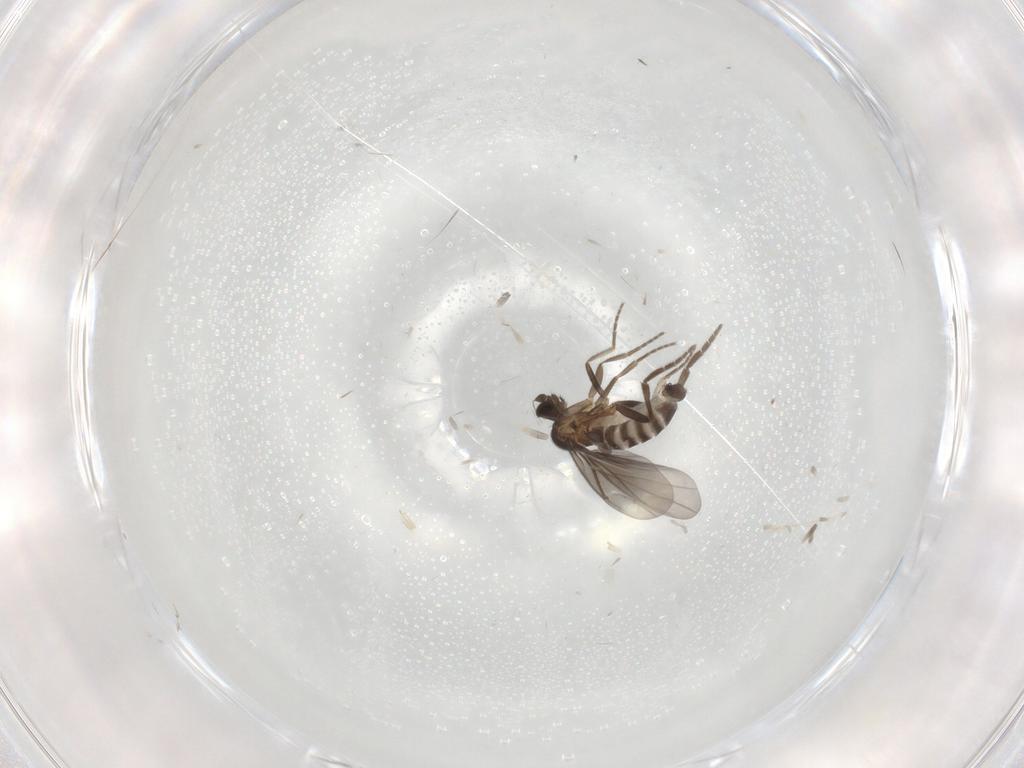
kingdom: Animalia
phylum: Arthropoda
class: Insecta
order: Diptera
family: Phoridae
